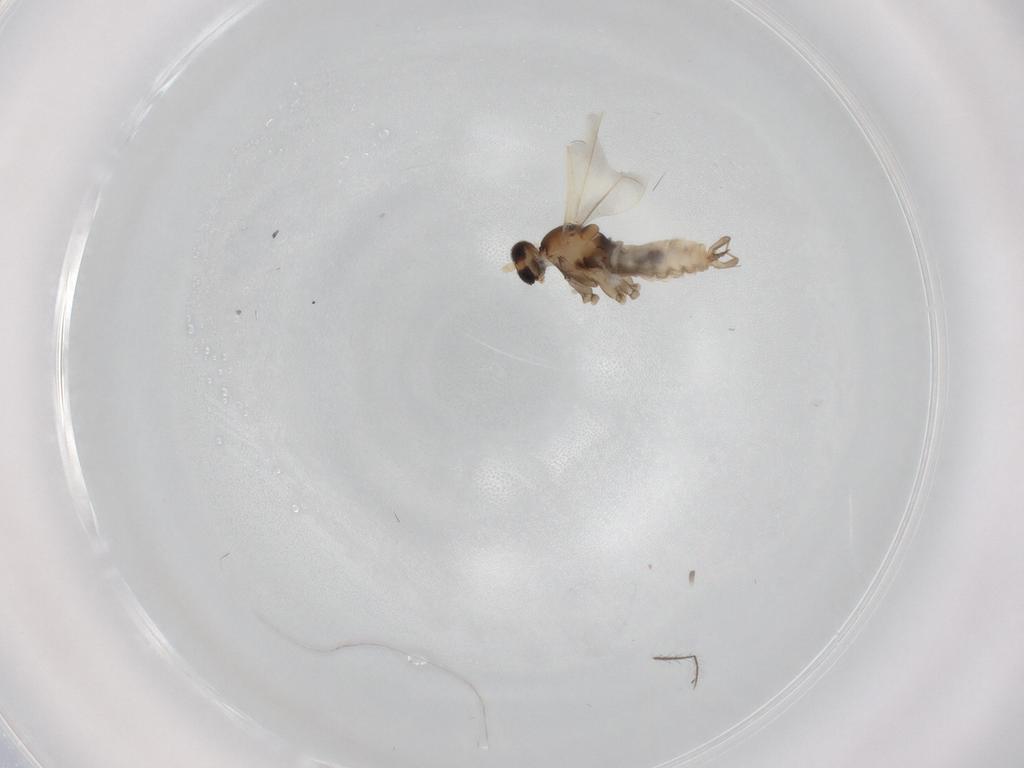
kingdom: Animalia
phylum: Arthropoda
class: Insecta
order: Diptera
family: Cecidomyiidae
